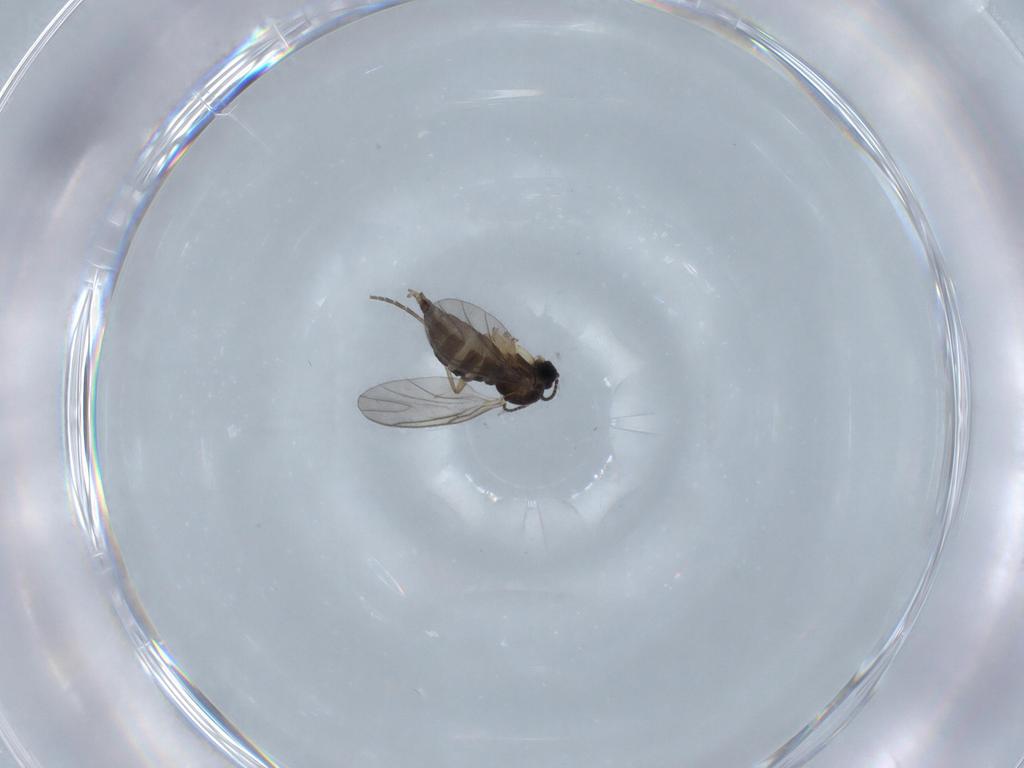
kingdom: Animalia
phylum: Arthropoda
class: Insecta
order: Diptera
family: Sciaridae
